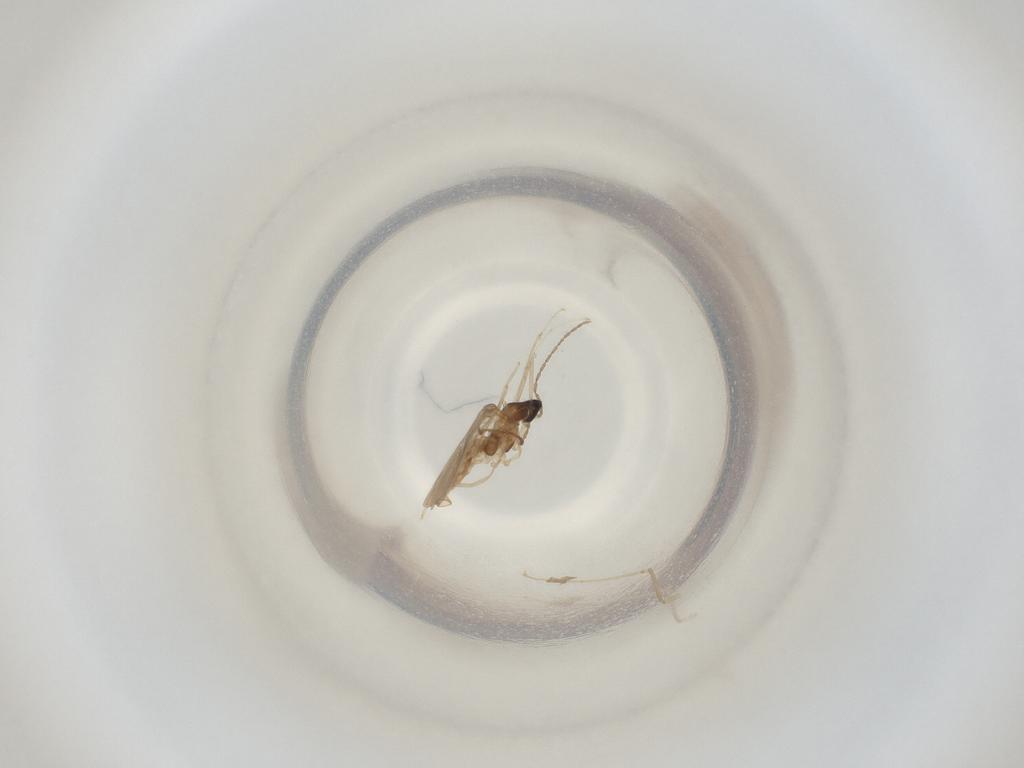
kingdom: Animalia
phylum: Arthropoda
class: Insecta
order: Diptera
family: Cecidomyiidae
